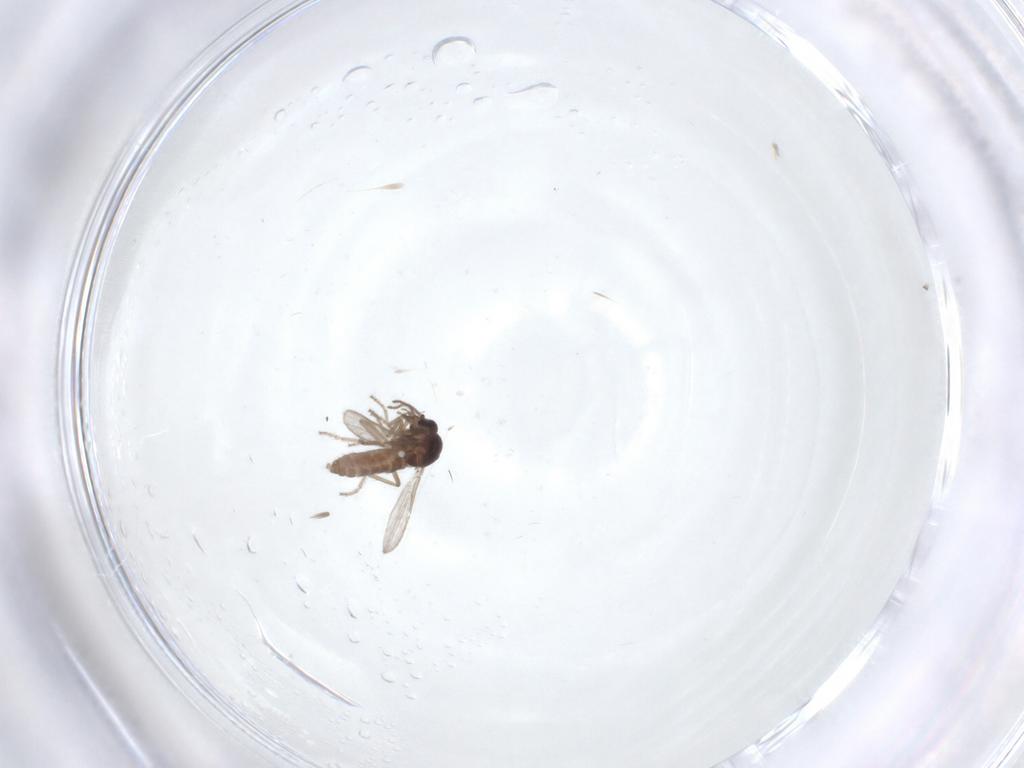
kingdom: Animalia
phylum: Arthropoda
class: Insecta
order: Diptera
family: Ceratopogonidae
